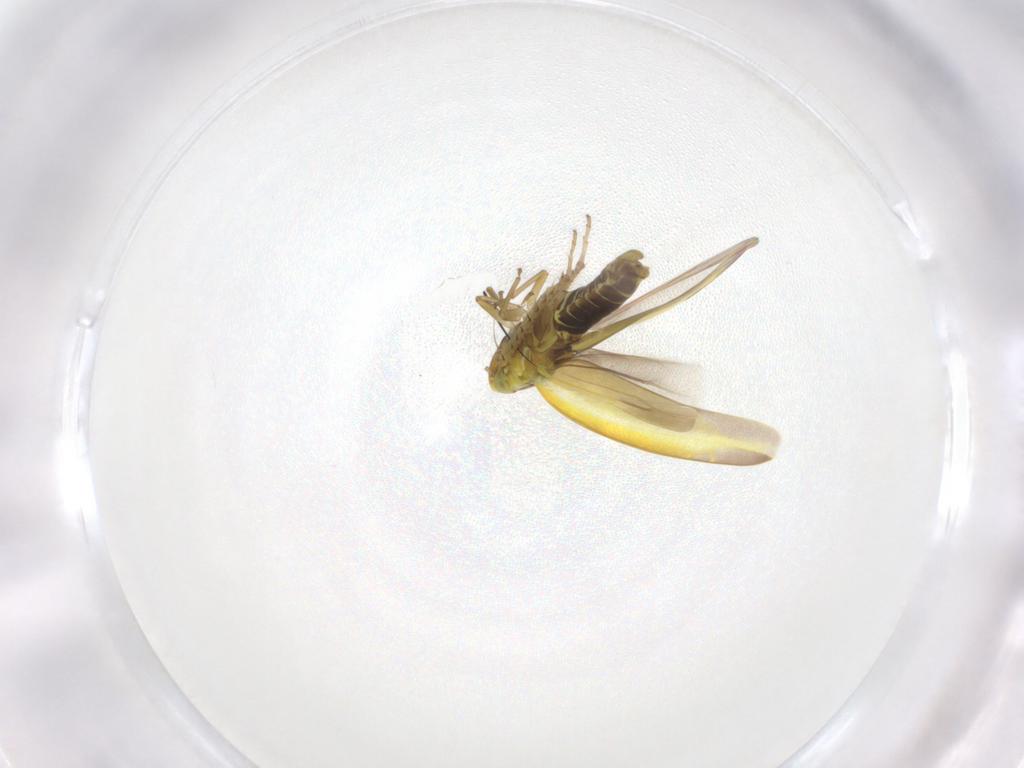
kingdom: Animalia
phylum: Arthropoda
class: Insecta
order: Hemiptera
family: Cicadellidae
